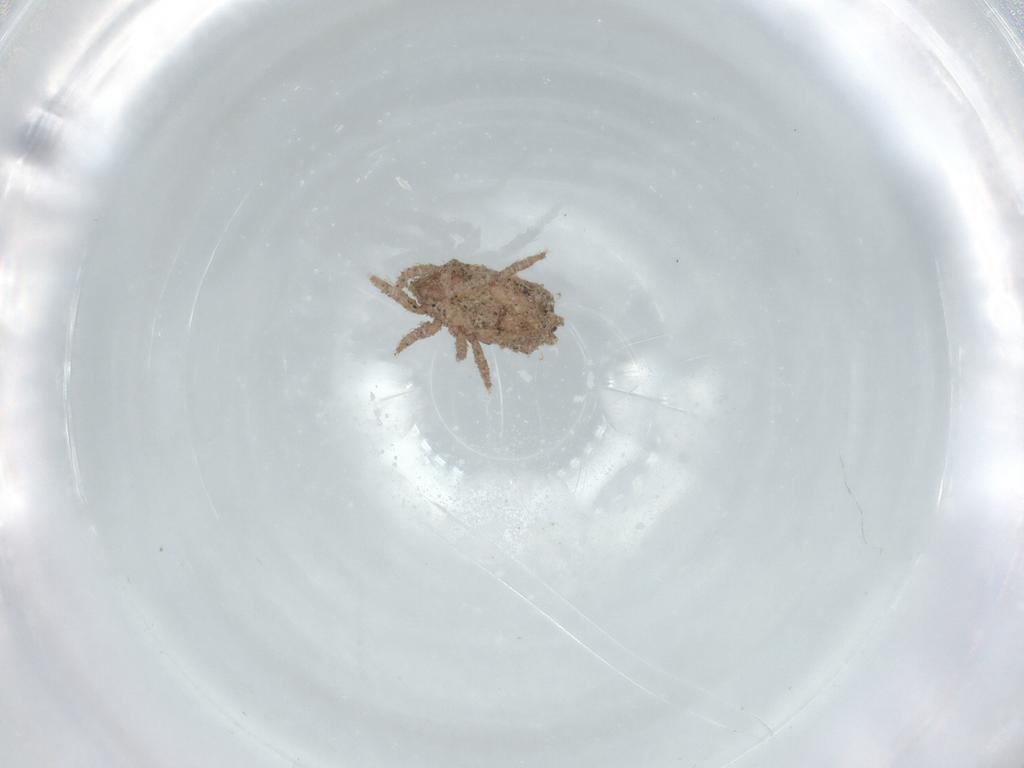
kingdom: Animalia
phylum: Arthropoda
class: Arachnida
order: Sarcoptiformes
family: Crotoniidae
